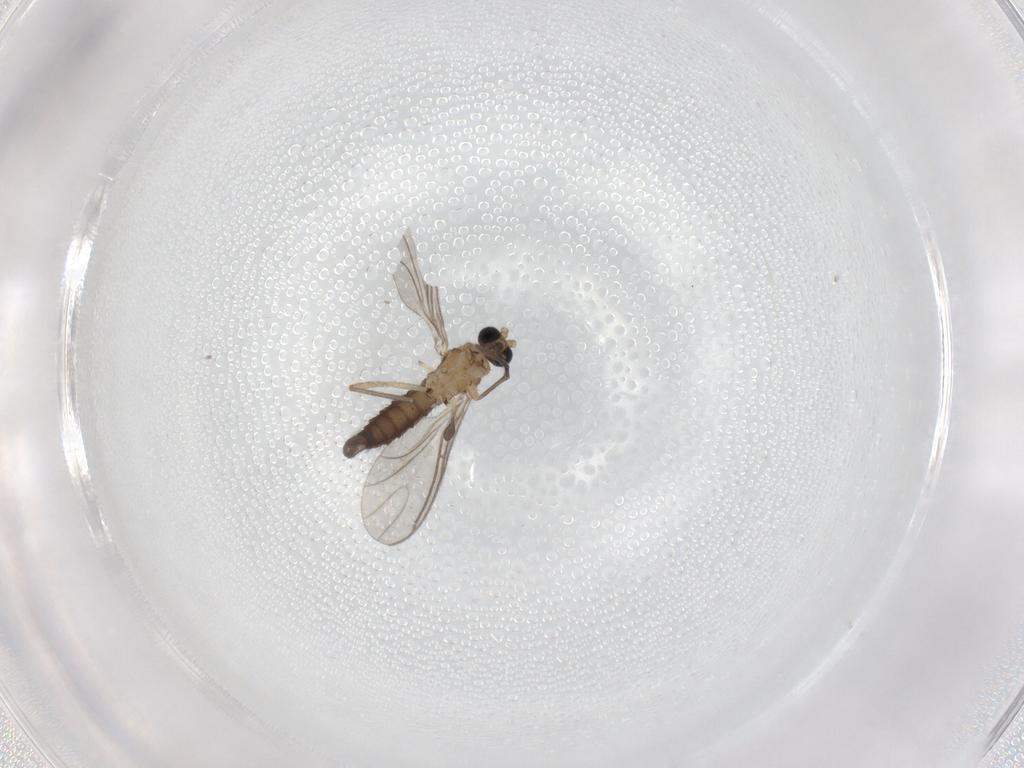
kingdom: Animalia
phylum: Arthropoda
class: Insecta
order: Diptera
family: Sciaridae
